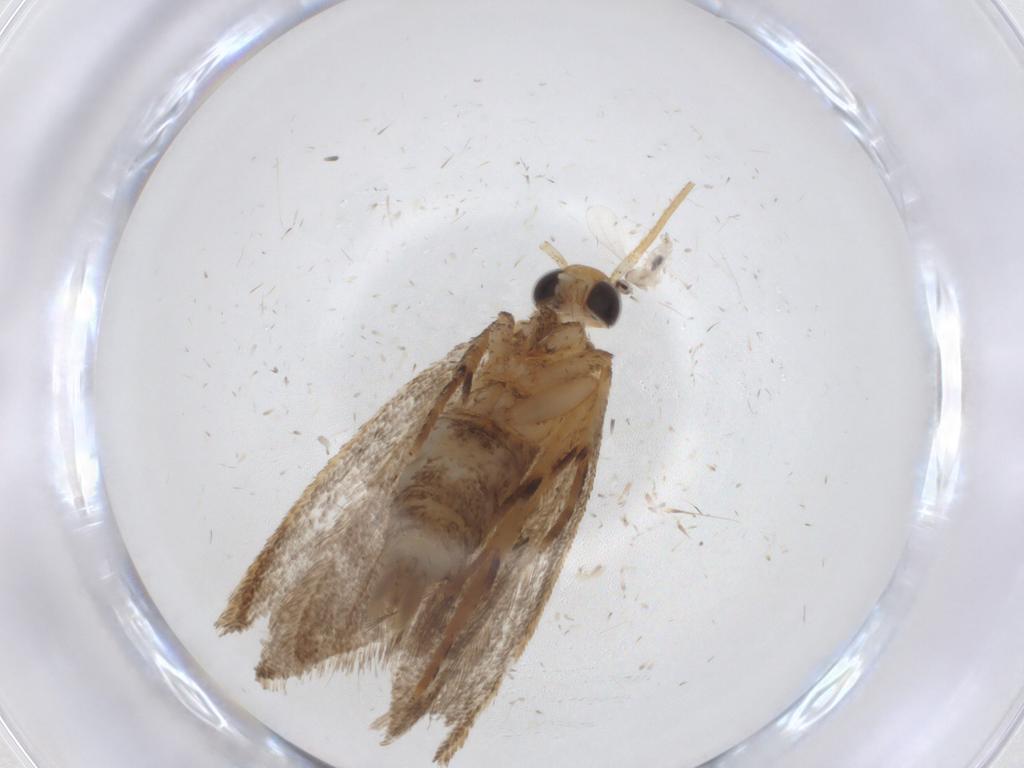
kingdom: Animalia
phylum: Arthropoda
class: Insecta
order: Lepidoptera
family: Oecophoridae
